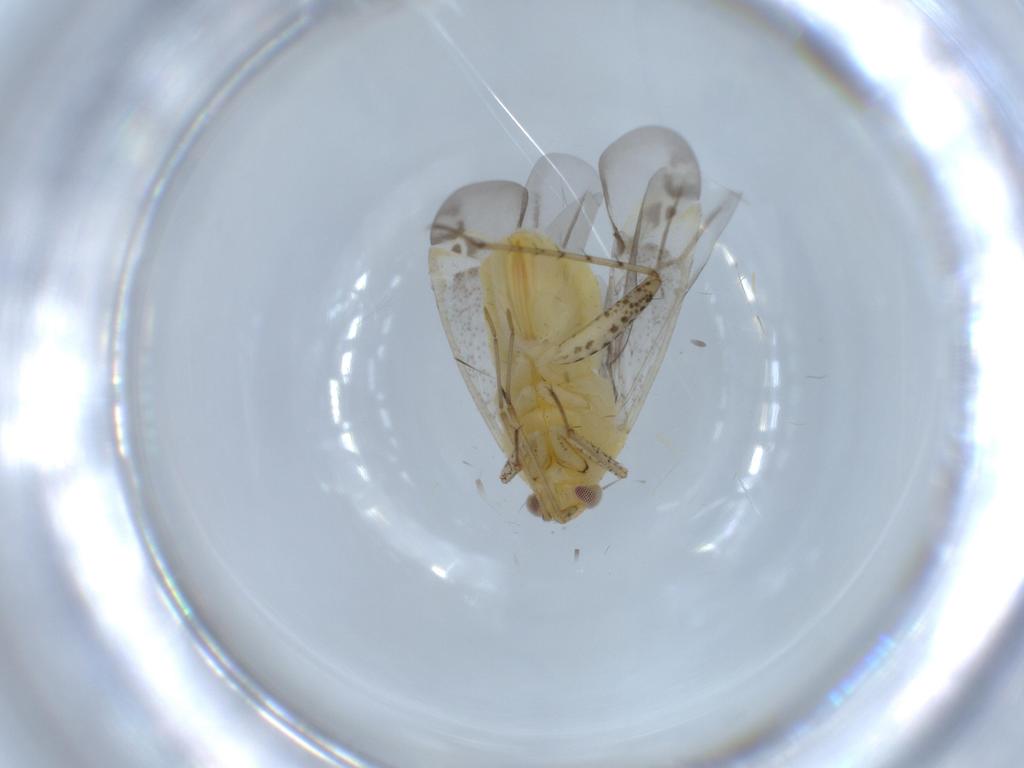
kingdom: Animalia
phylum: Arthropoda
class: Insecta
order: Hemiptera
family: Miridae
